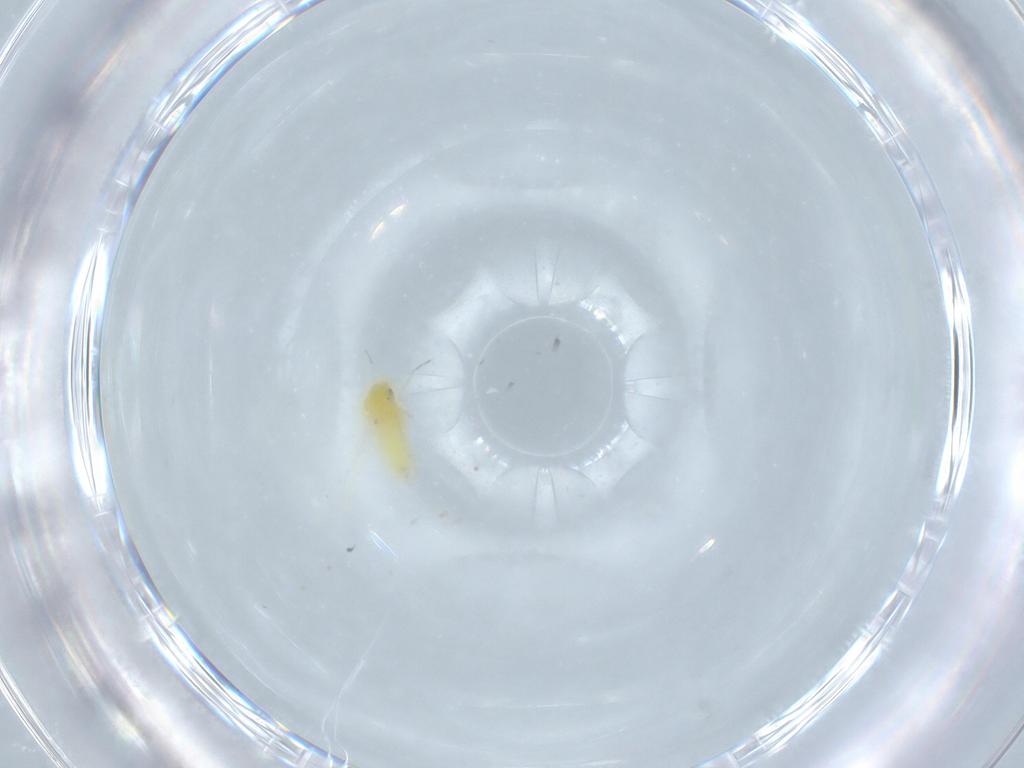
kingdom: Animalia
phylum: Arthropoda
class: Insecta
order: Hemiptera
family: Aleyrodidae
